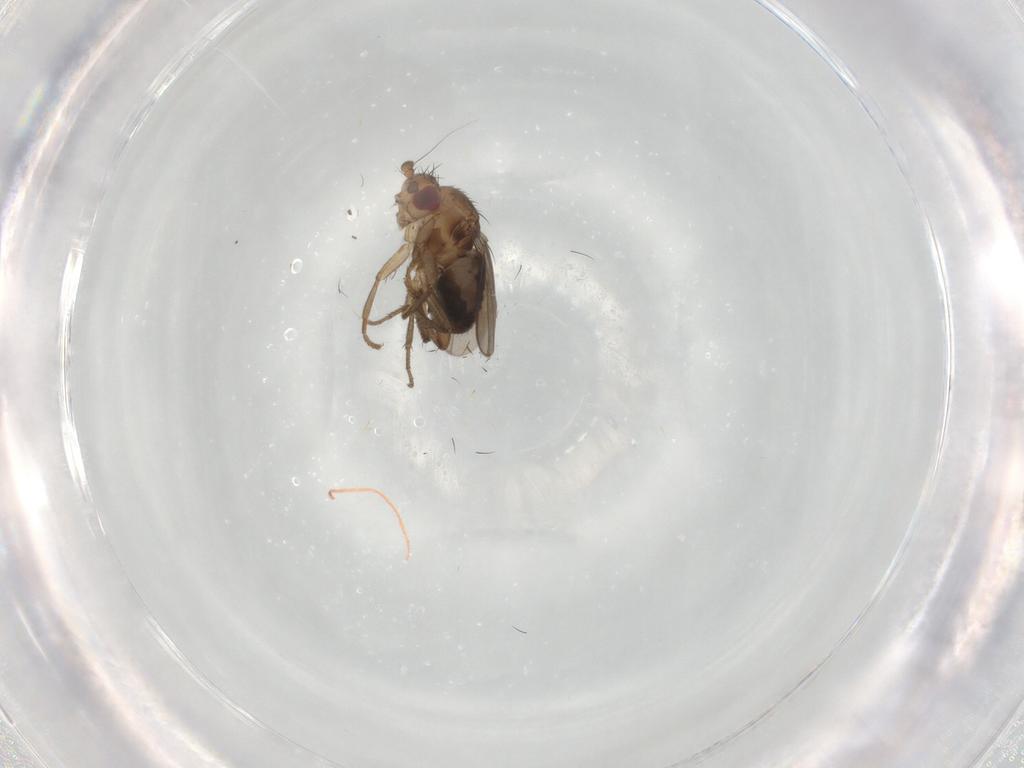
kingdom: Animalia
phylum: Arthropoda
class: Insecta
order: Diptera
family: Sphaeroceridae
